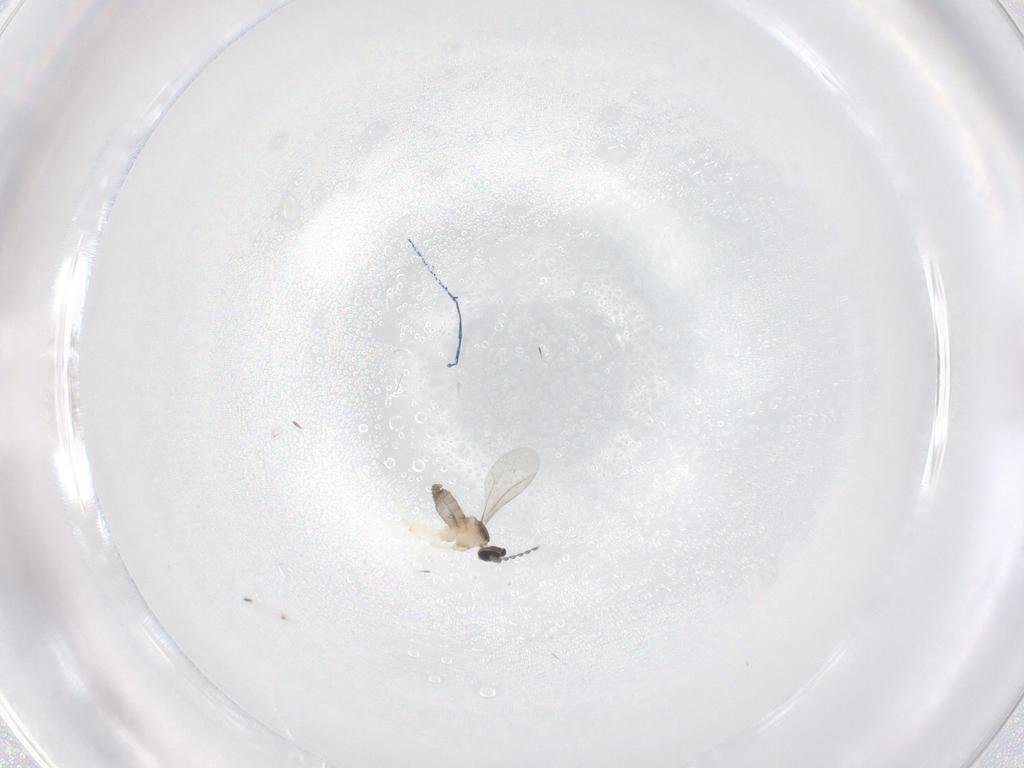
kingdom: Animalia
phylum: Arthropoda
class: Insecta
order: Diptera
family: Cecidomyiidae
